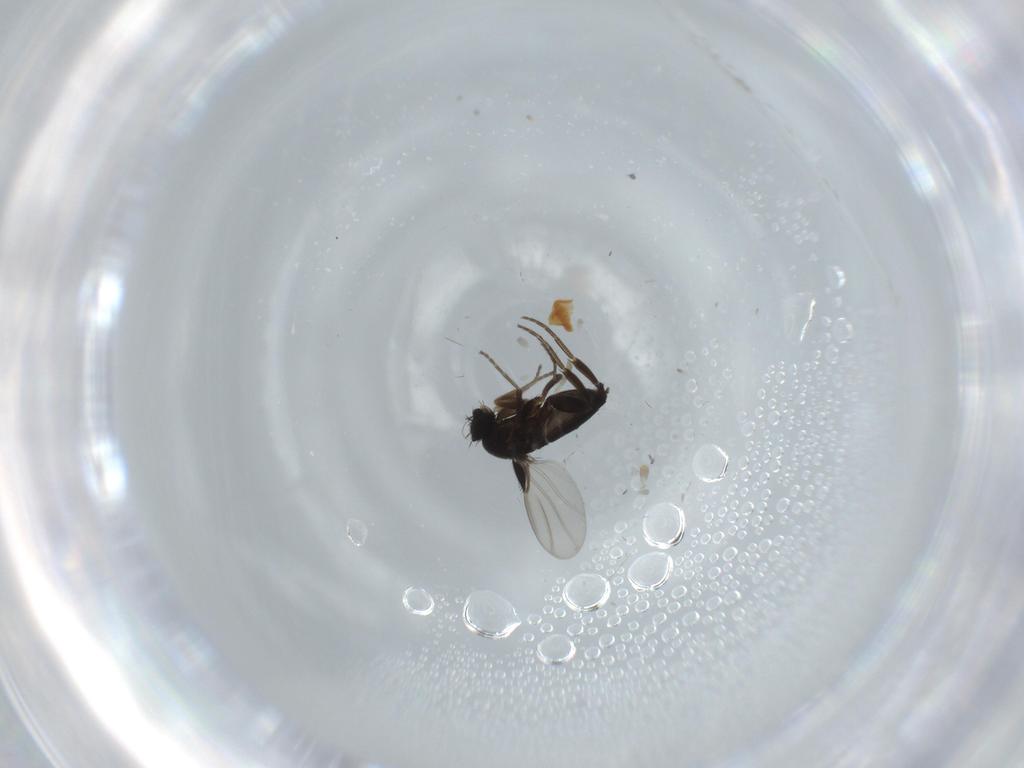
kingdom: Animalia
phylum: Arthropoda
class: Insecta
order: Diptera
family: Phoridae
